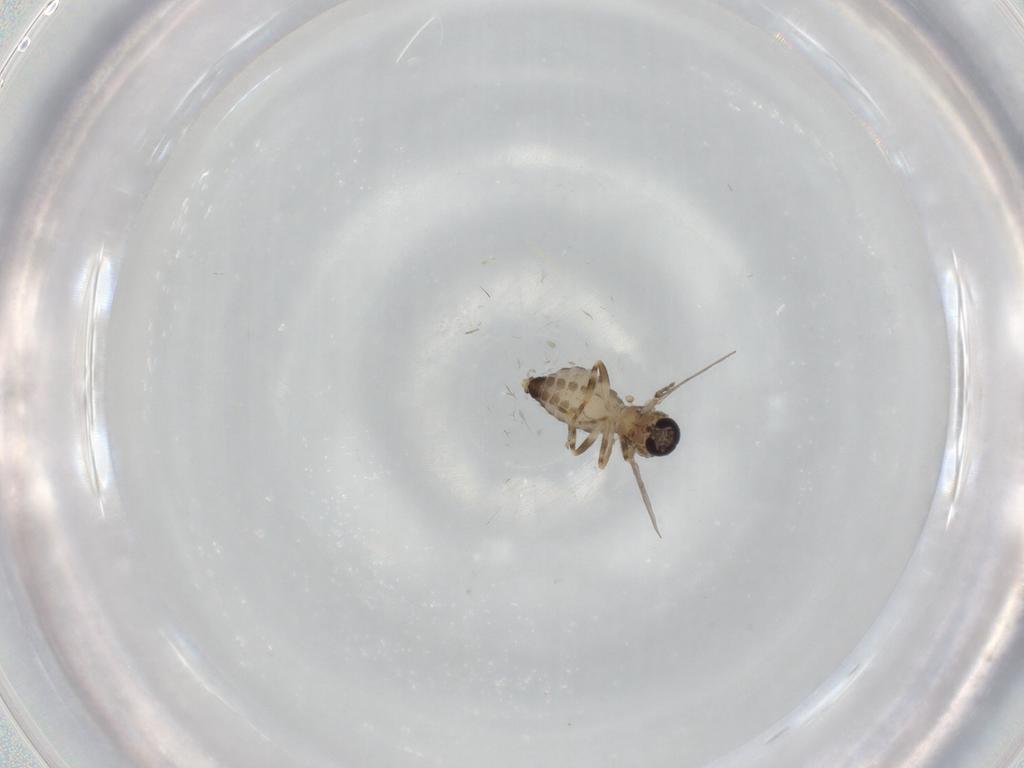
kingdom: Animalia
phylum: Arthropoda
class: Insecta
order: Diptera
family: Ceratopogonidae
